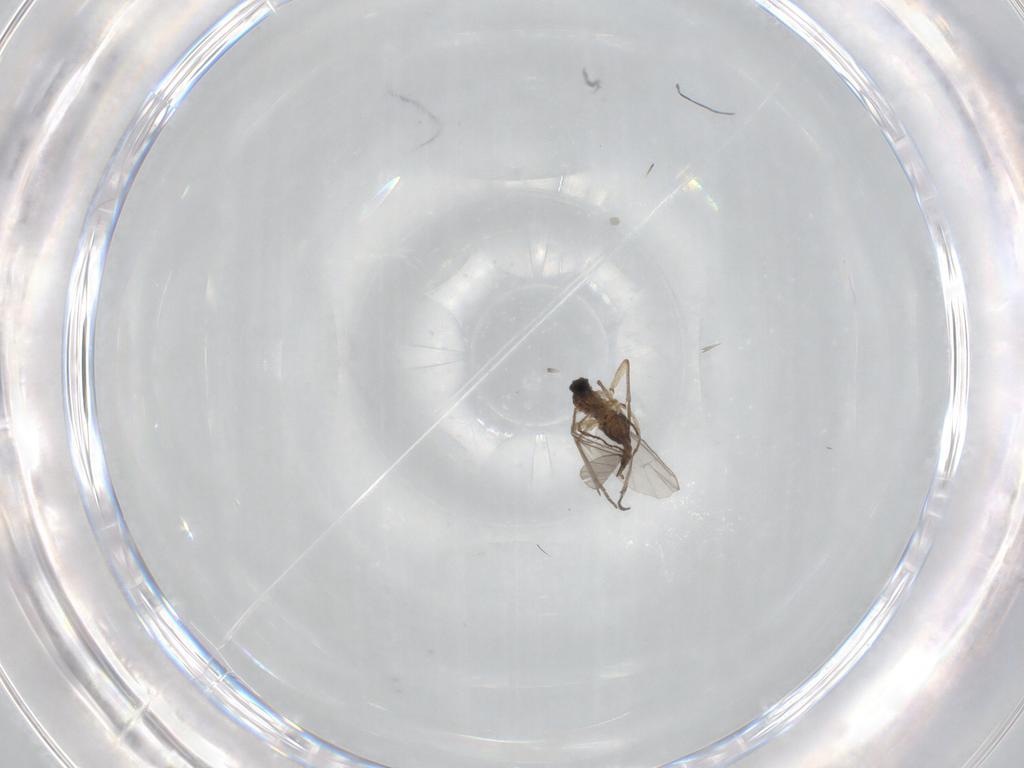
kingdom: Animalia
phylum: Arthropoda
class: Insecta
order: Diptera
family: Sciaridae
